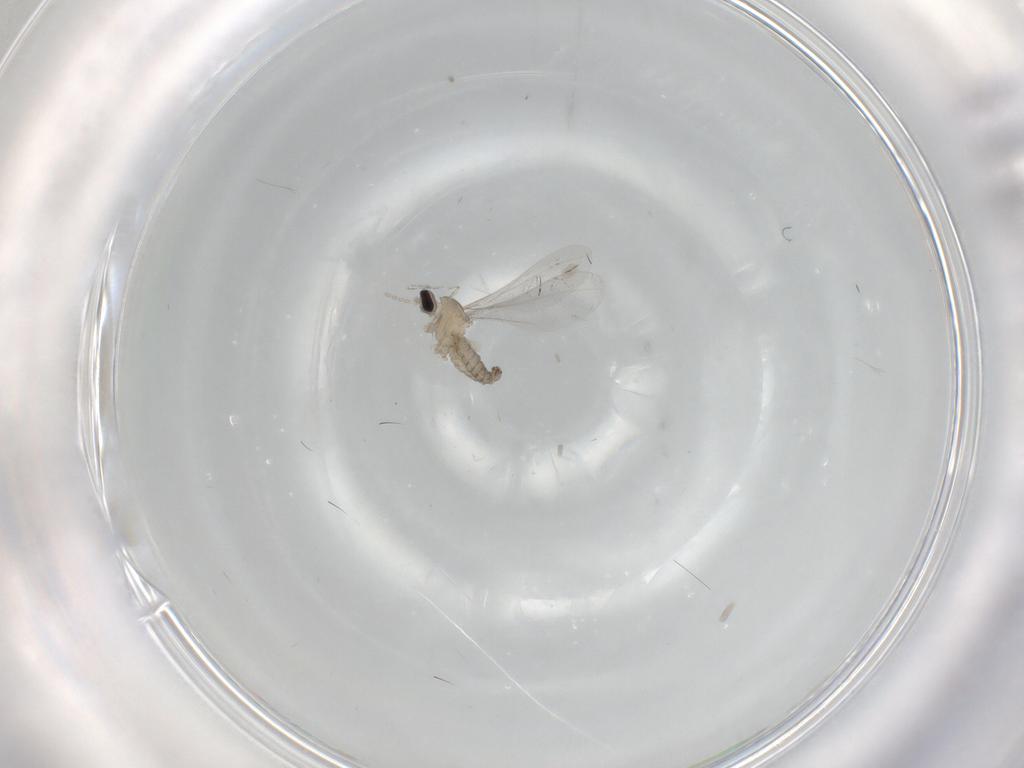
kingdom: Animalia
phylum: Arthropoda
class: Insecta
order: Diptera
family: Cecidomyiidae
